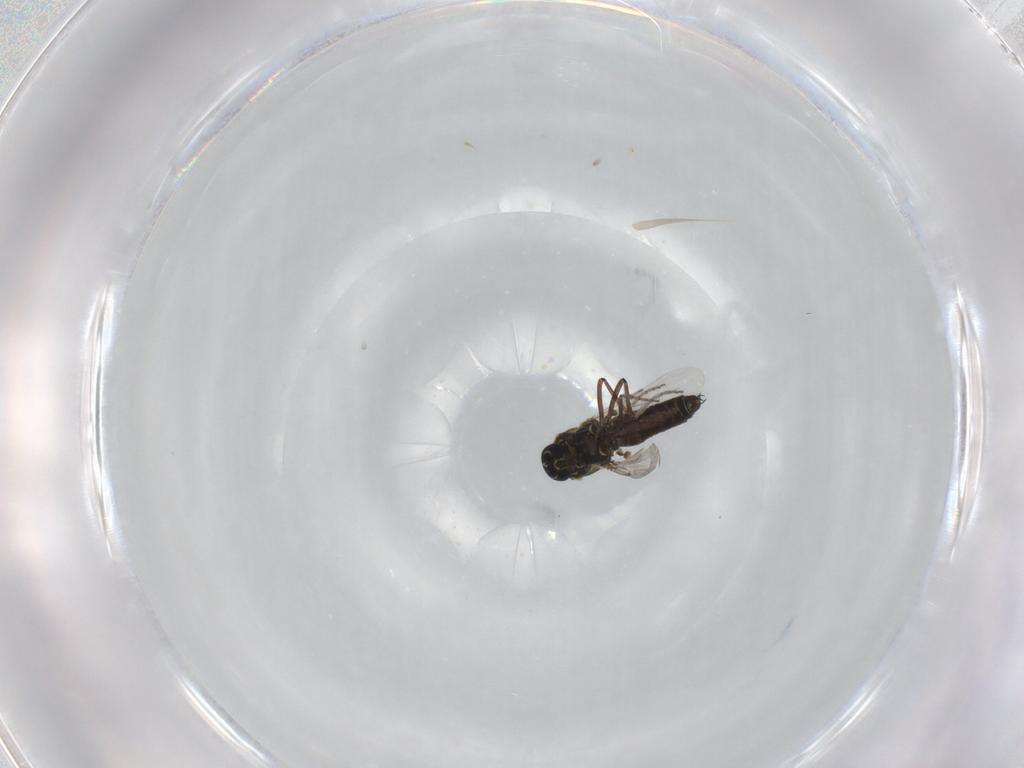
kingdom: Animalia
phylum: Arthropoda
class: Insecta
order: Diptera
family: Ceratopogonidae
